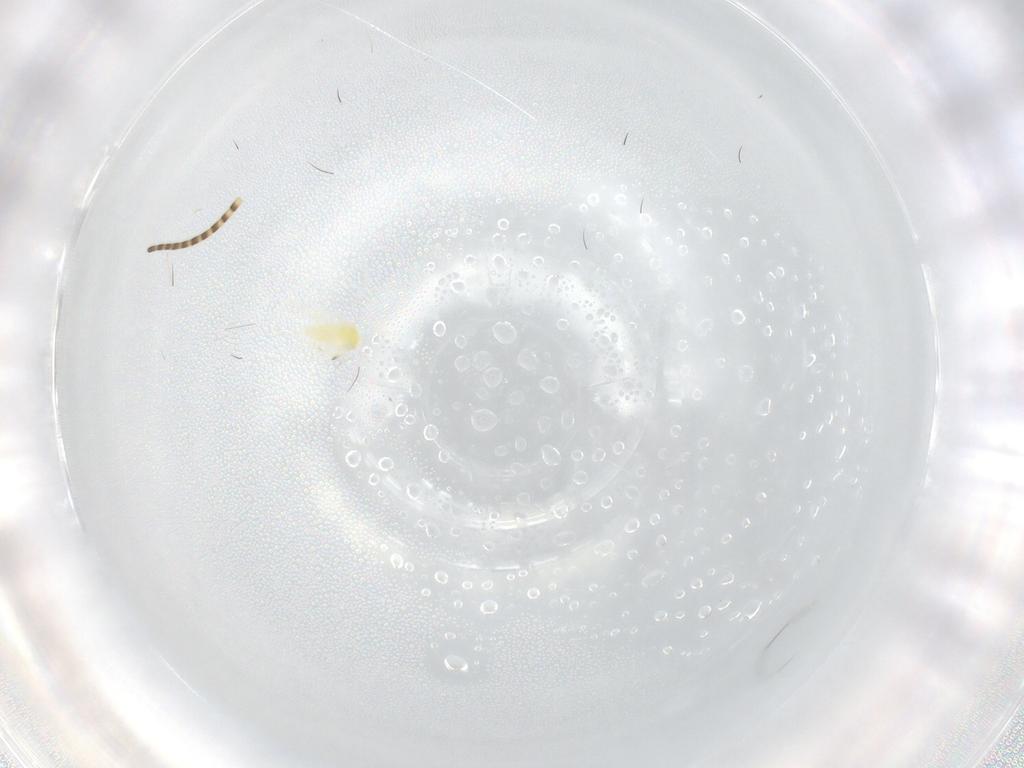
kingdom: Animalia
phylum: Arthropoda
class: Insecta
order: Hemiptera
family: Aleyrodidae
